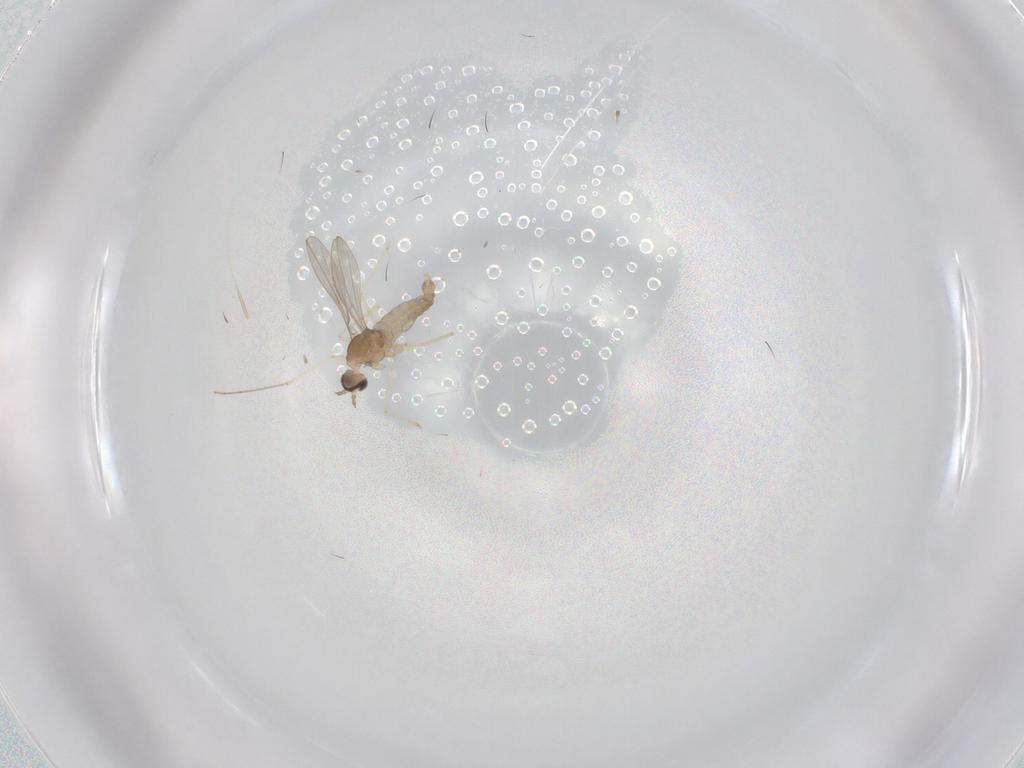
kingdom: Animalia
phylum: Arthropoda
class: Insecta
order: Diptera
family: Cecidomyiidae
